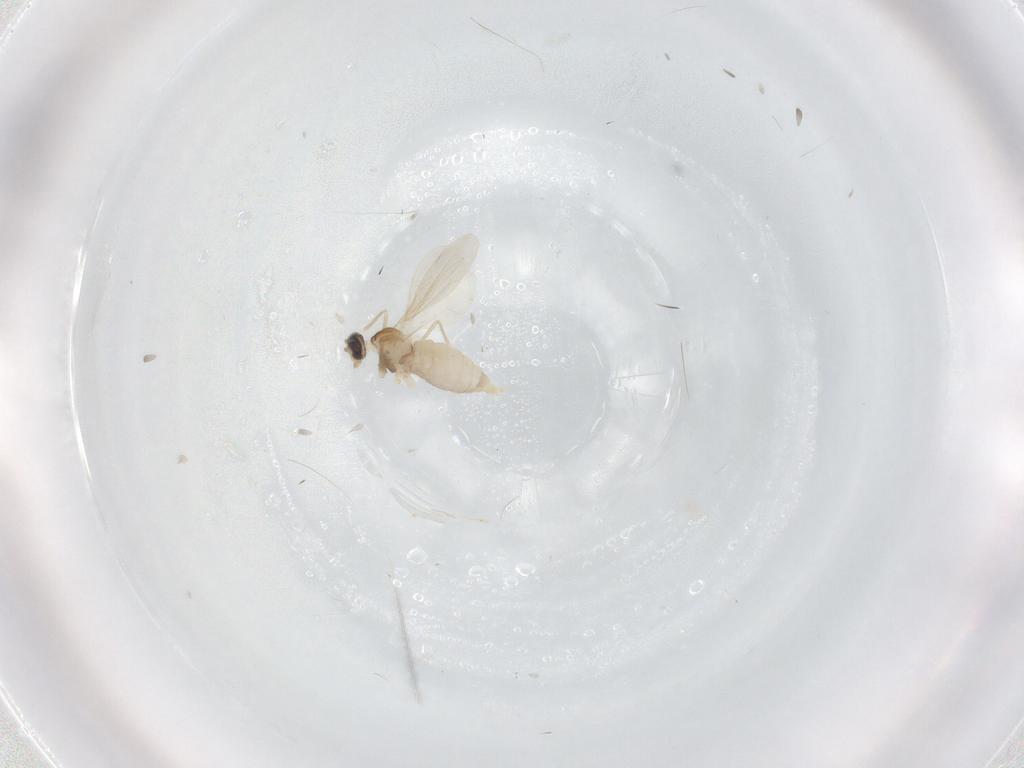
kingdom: Animalia
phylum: Arthropoda
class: Insecta
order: Diptera
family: Cecidomyiidae
